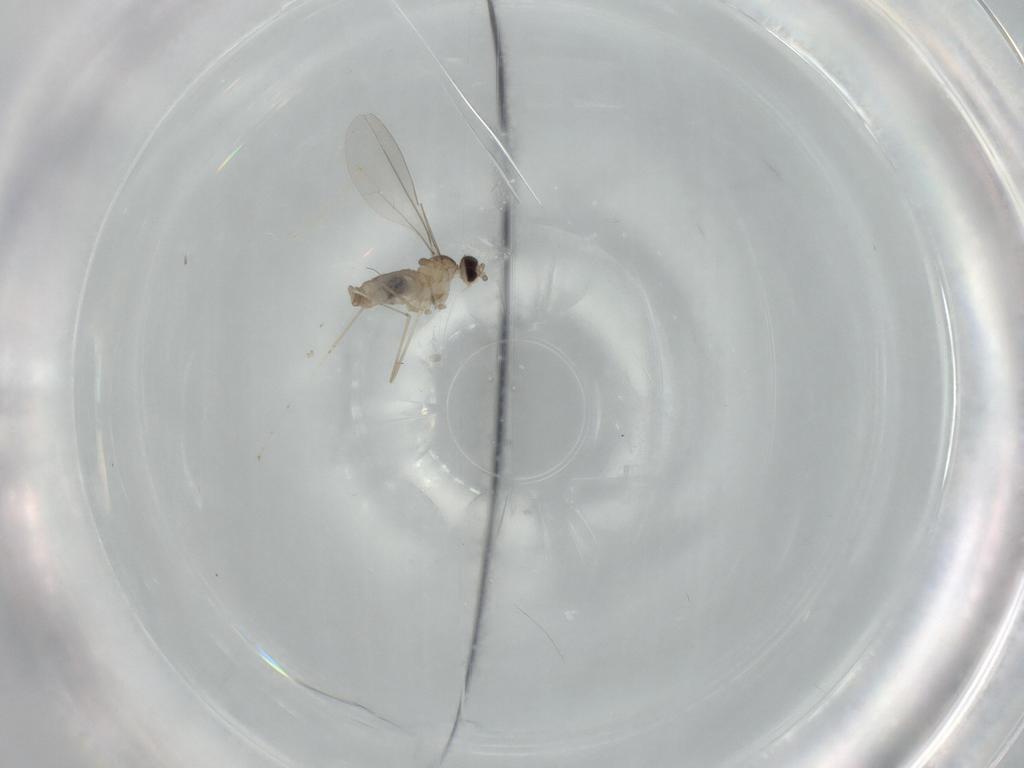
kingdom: Animalia
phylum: Arthropoda
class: Insecta
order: Diptera
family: Cecidomyiidae
